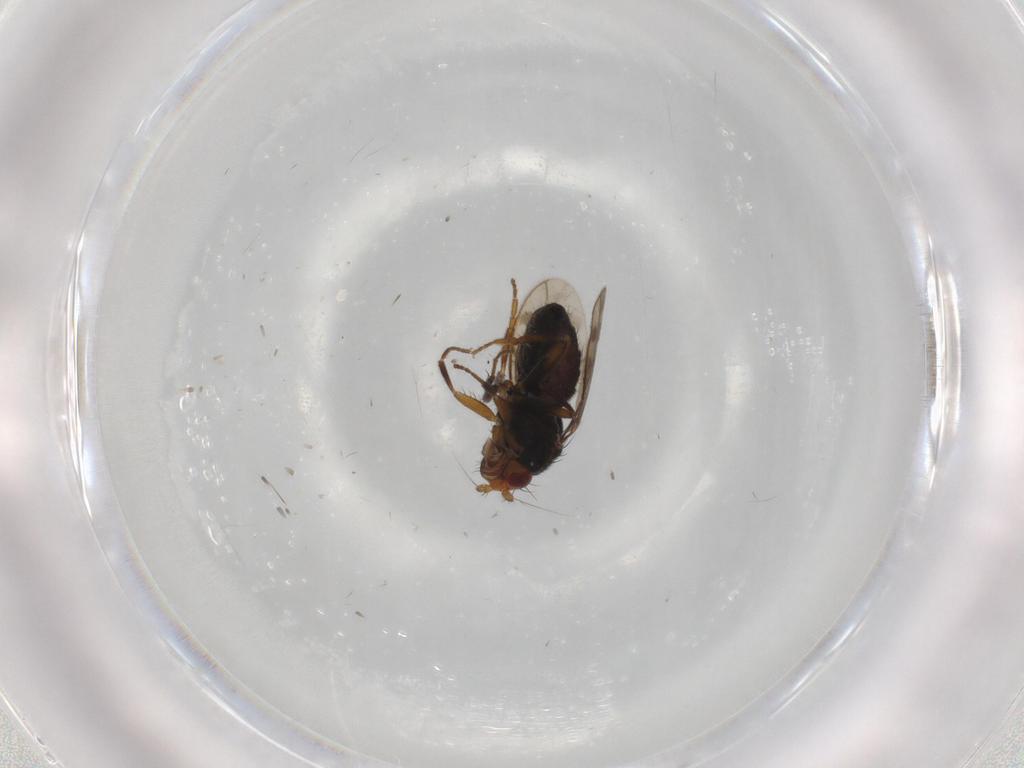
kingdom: Animalia
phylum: Arthropoda
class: Insecta
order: Diptera
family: Sphaeroceridae
